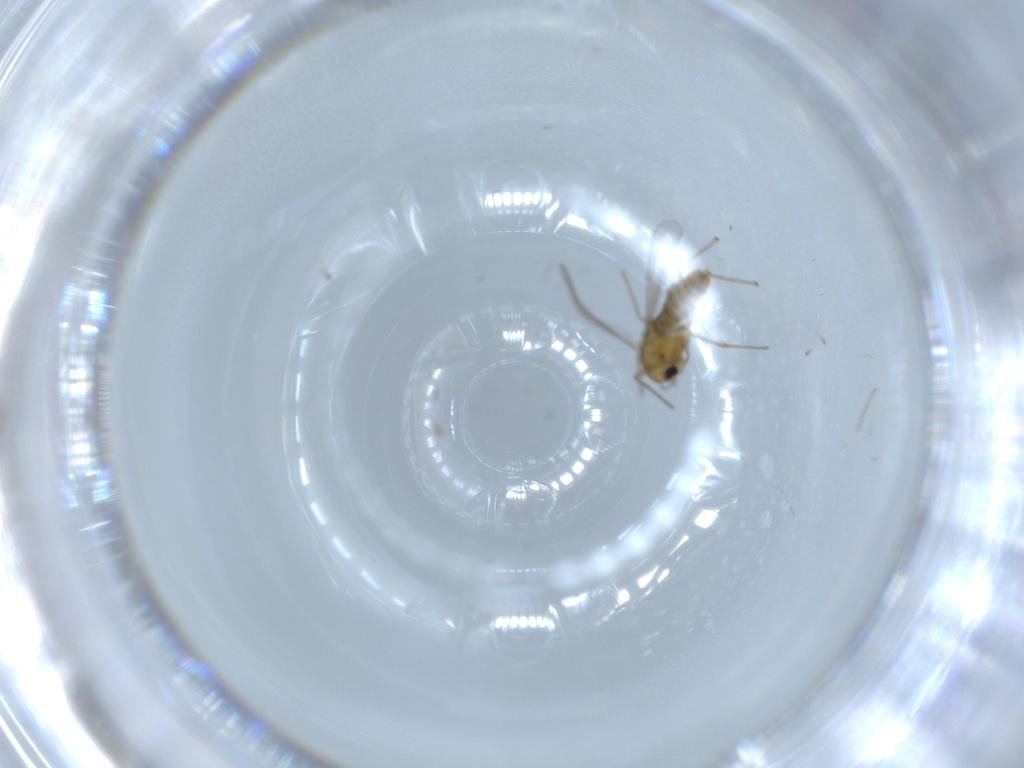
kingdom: Animalia
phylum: Arthropoda
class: Insecta
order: Diptera
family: Chironomidae
